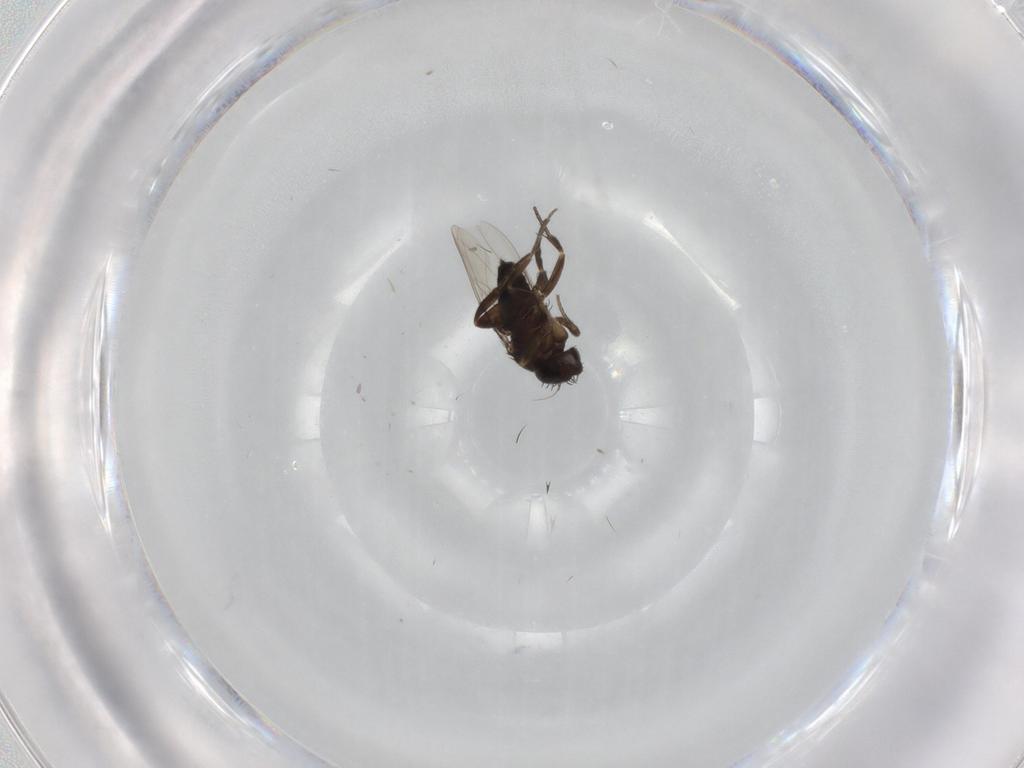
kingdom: Animalia
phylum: Arthropoda
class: Insecta
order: Diptera
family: Phoridae
